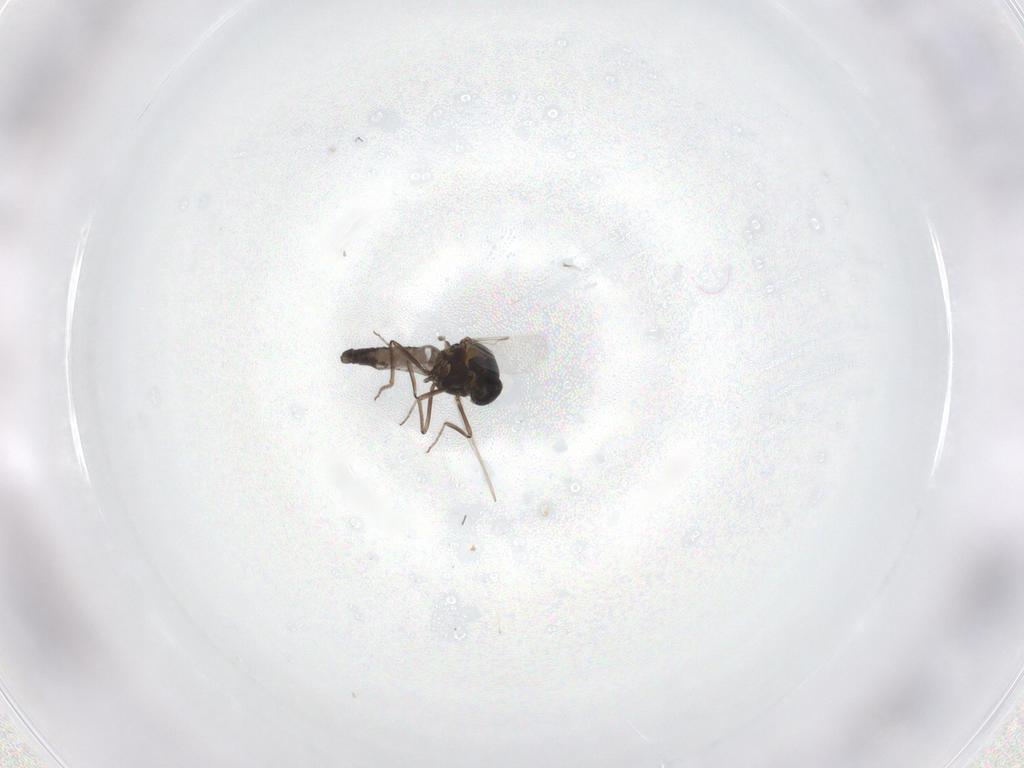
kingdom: Animalia
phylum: Arthropoda
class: Insecta
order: Diptera
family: Cecidomyiidae
